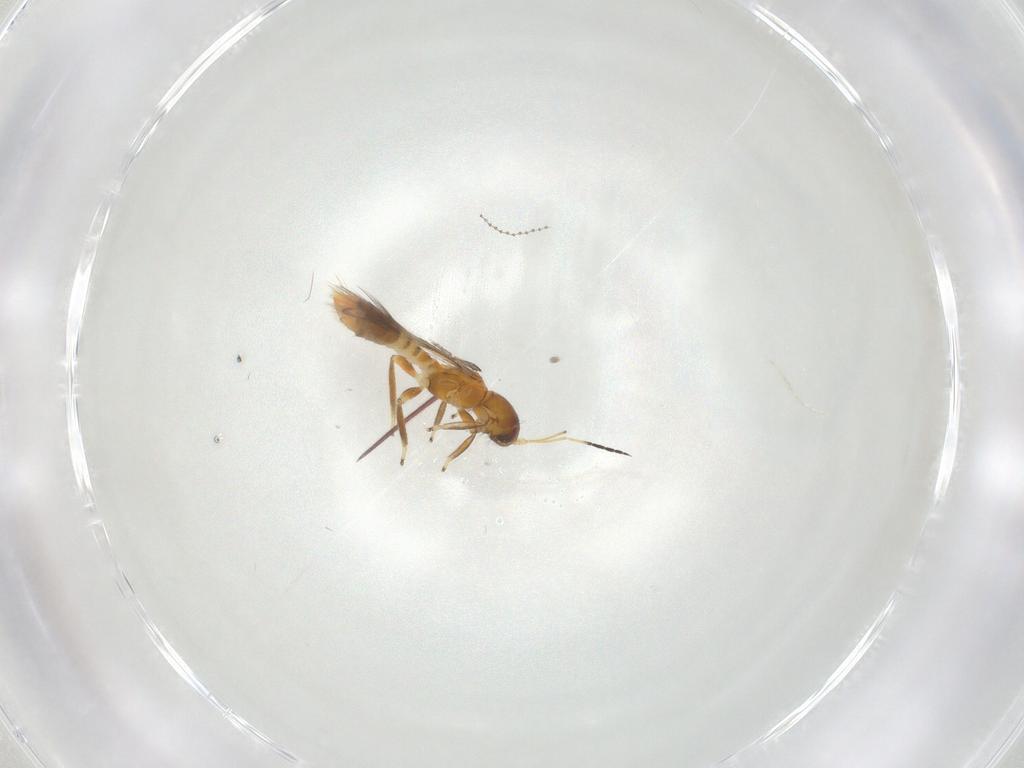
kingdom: Animalia
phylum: Arthropoda
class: Insecta
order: Thysanoptera
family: Aeolothripidae
